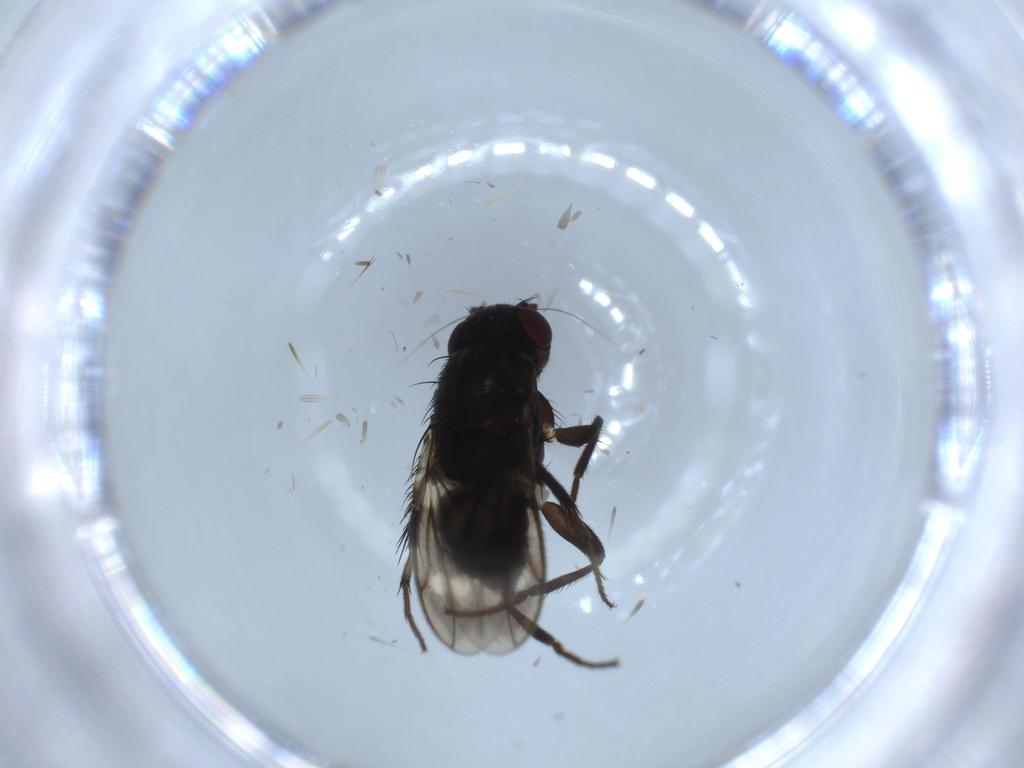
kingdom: Animalia
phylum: Arthropoda
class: Insecta
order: Diptera
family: Sphaeroceridae
